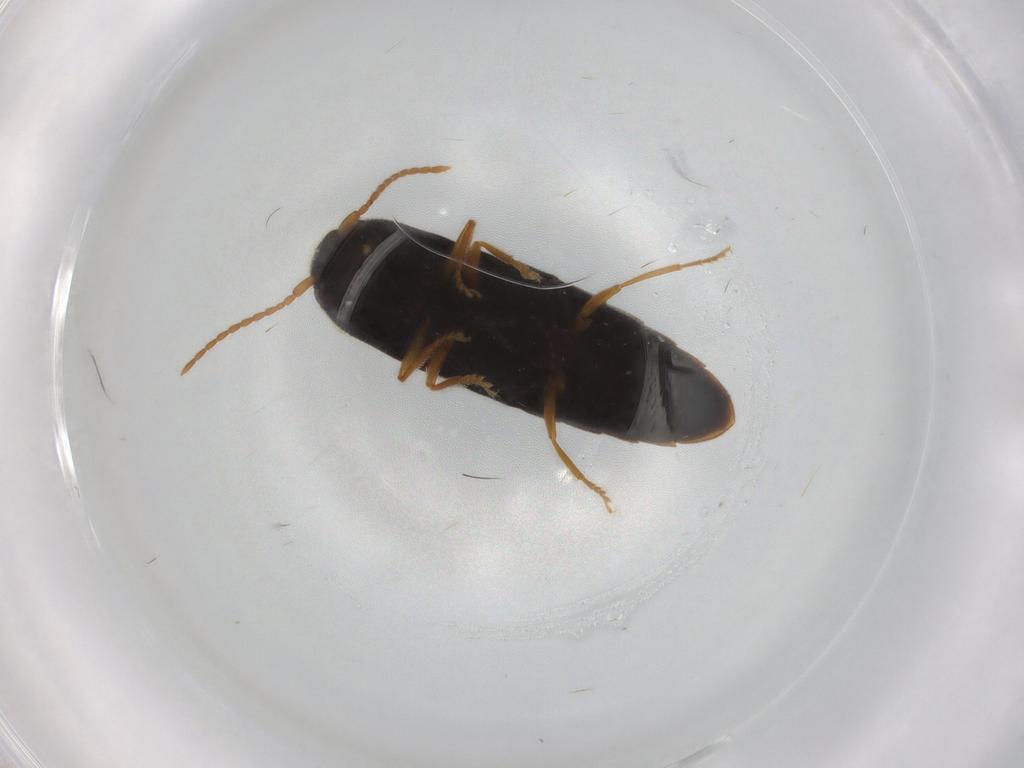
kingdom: Animalia
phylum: Arthropoda
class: Insecta
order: Coleoptera
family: Elateridae
